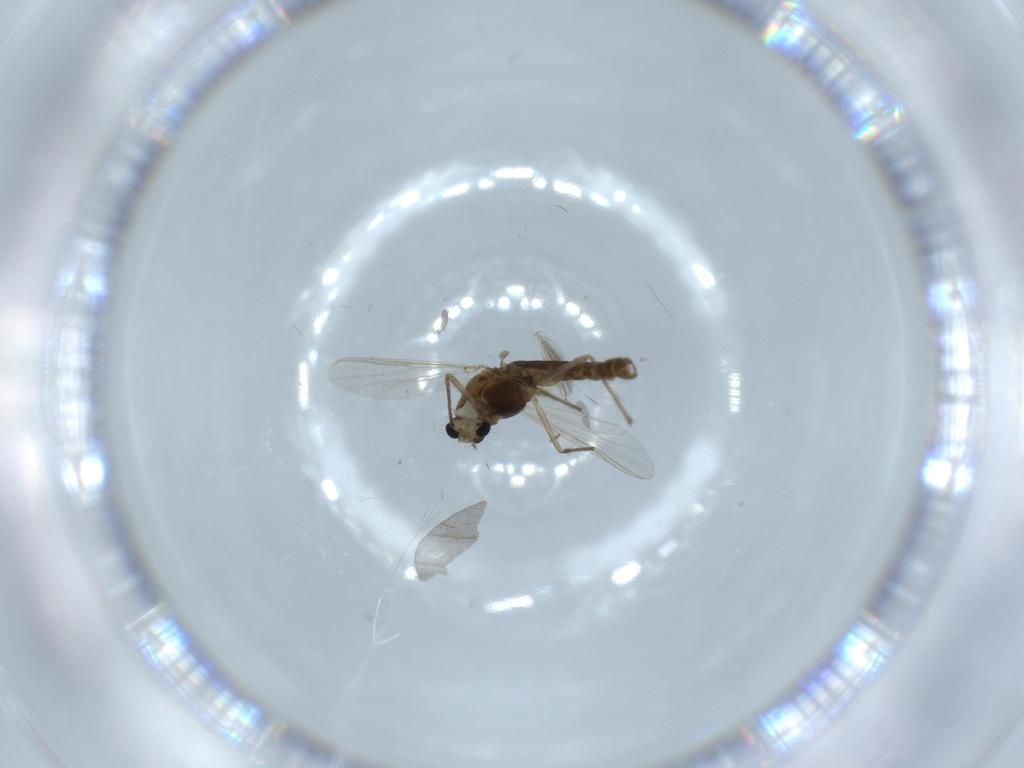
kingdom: Animalia
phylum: Arthropoda
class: Insecta
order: Diptera
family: Chironomidae
